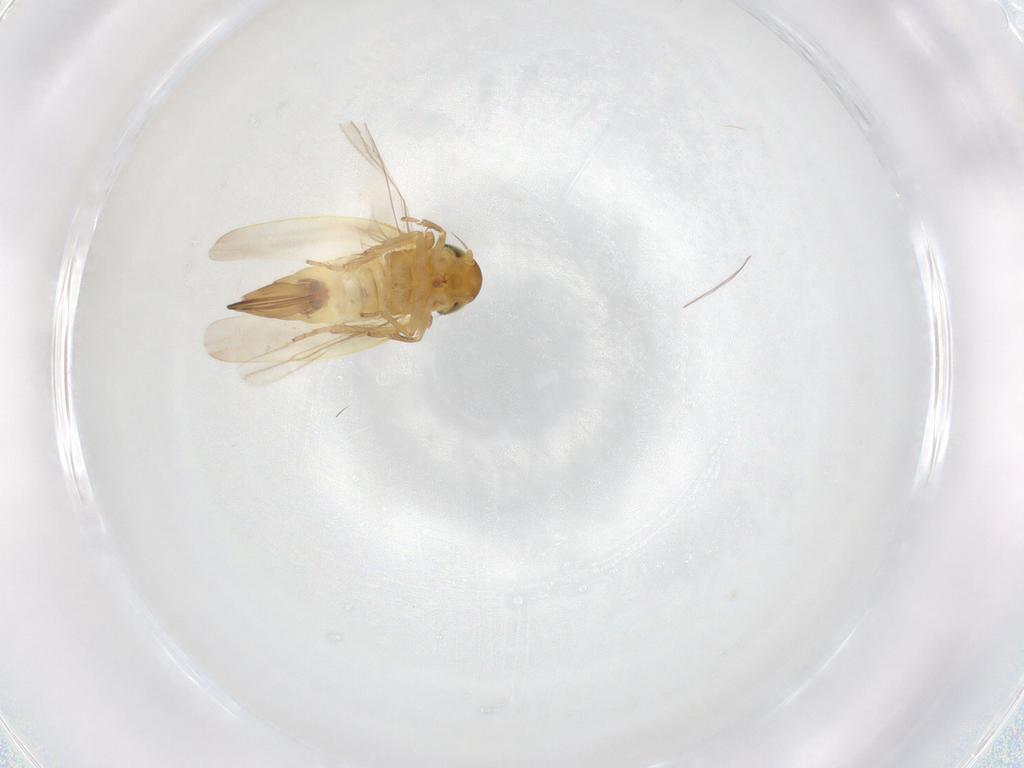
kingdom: Animalia
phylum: Arthropoda
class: Insecta
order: Hemiptera
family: Cicadellidae
